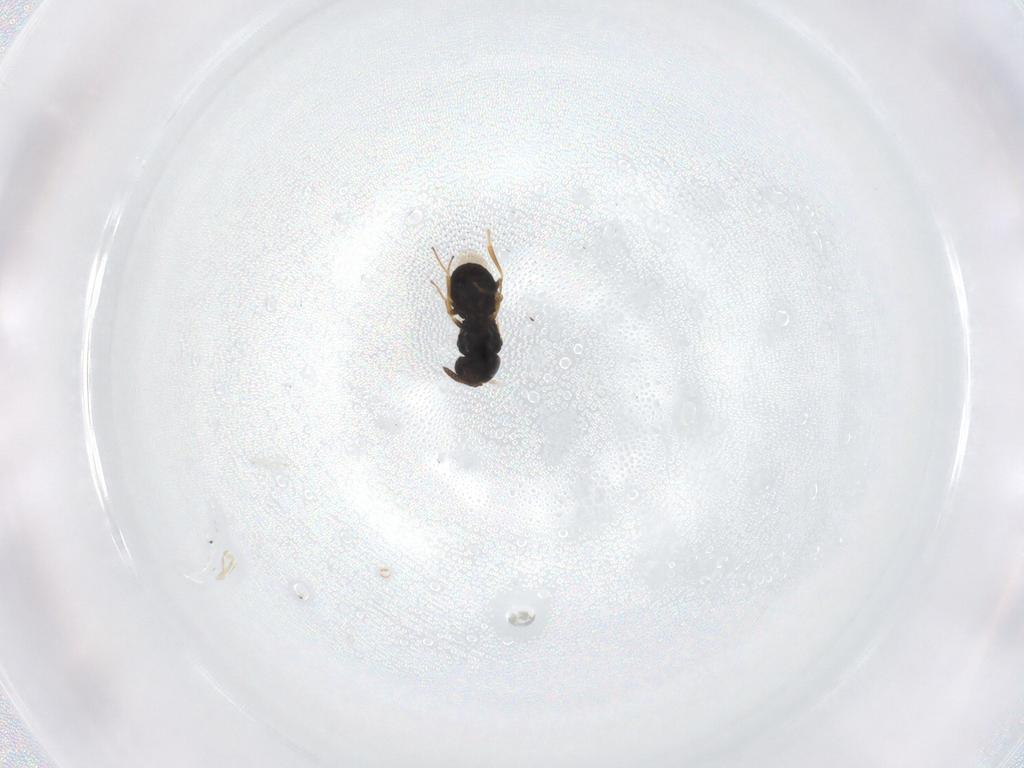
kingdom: Animalia
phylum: Arthropoda
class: Insecta
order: Hymenoptera
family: Scelionidae
